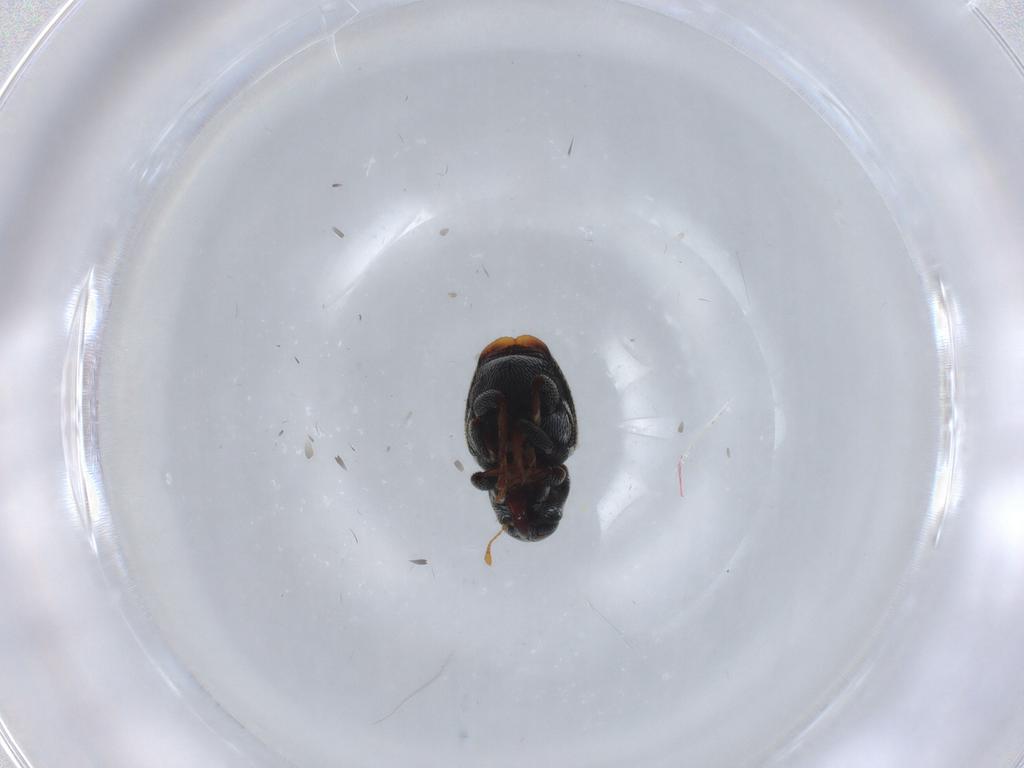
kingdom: Animalia
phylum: Arthropoda
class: Insecta
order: Coleoptera
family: Curculionidae
